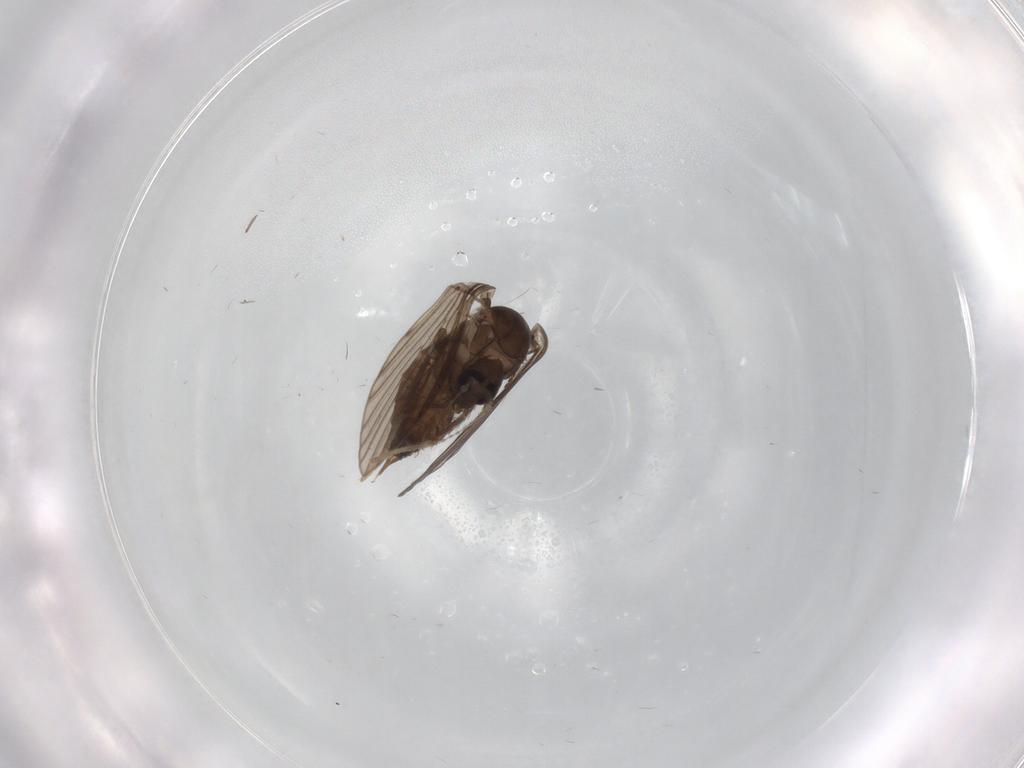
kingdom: Animalia
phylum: Arthropoda
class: Insecta
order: Diptera
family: Psychodidae
